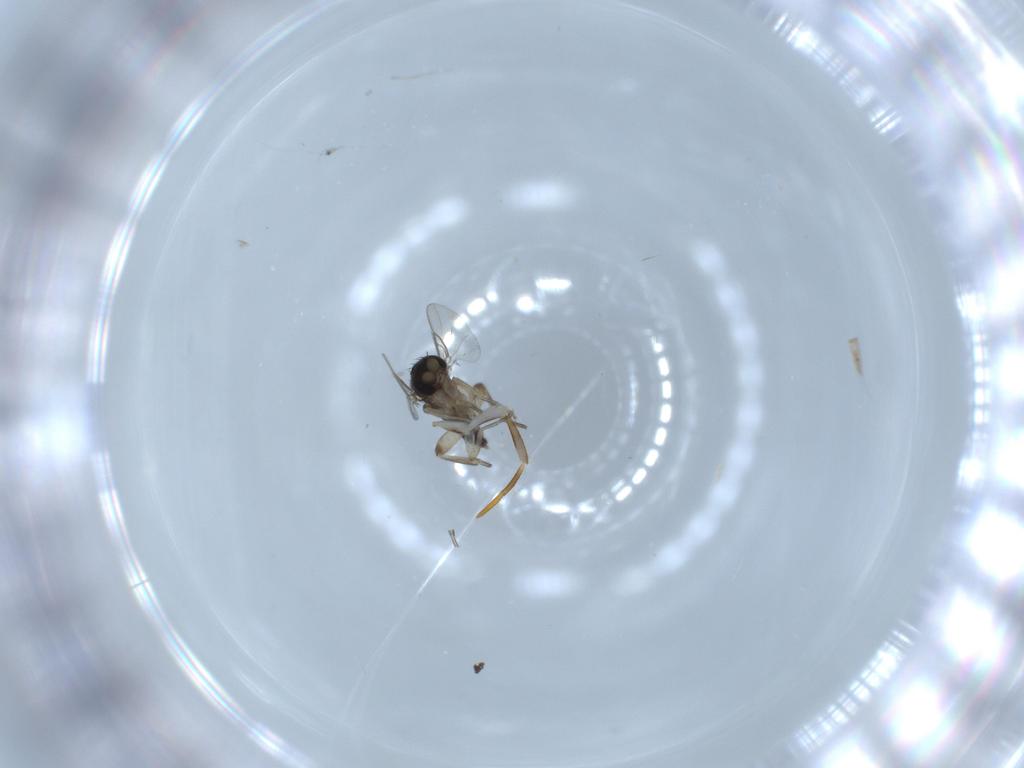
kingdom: Animalia
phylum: Arthropoda
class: Insecta
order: Diptera
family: Phoridae
